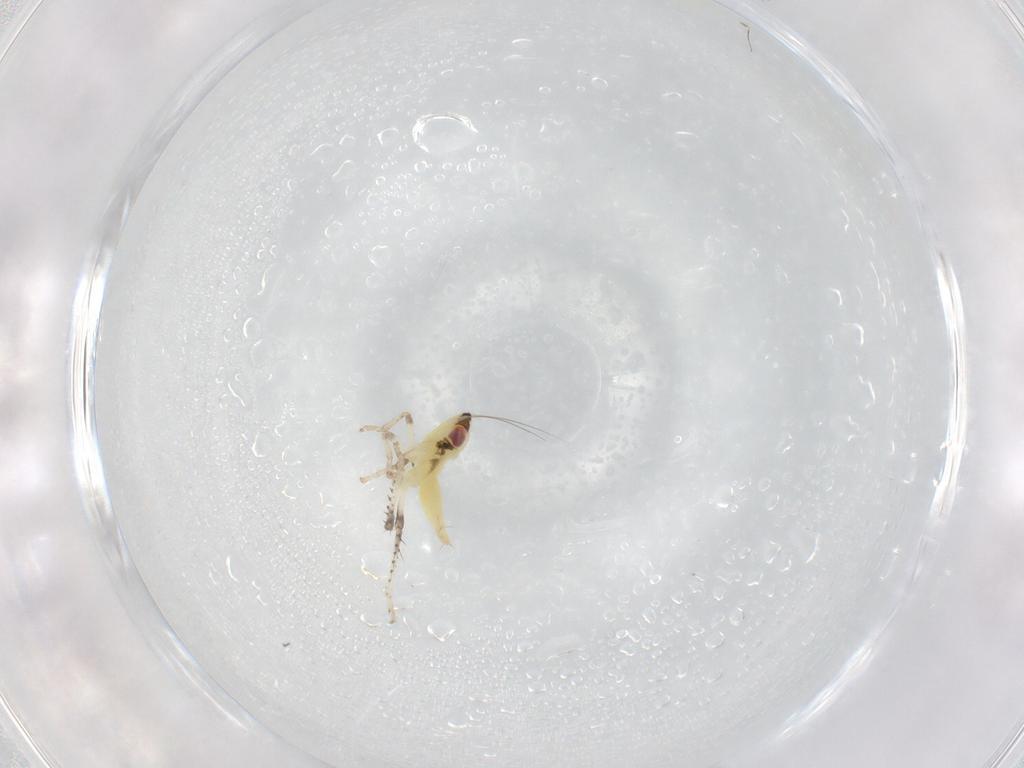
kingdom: Animalia
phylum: Arthropoda
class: Insecta
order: Hemiptera
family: Cicadellidae
